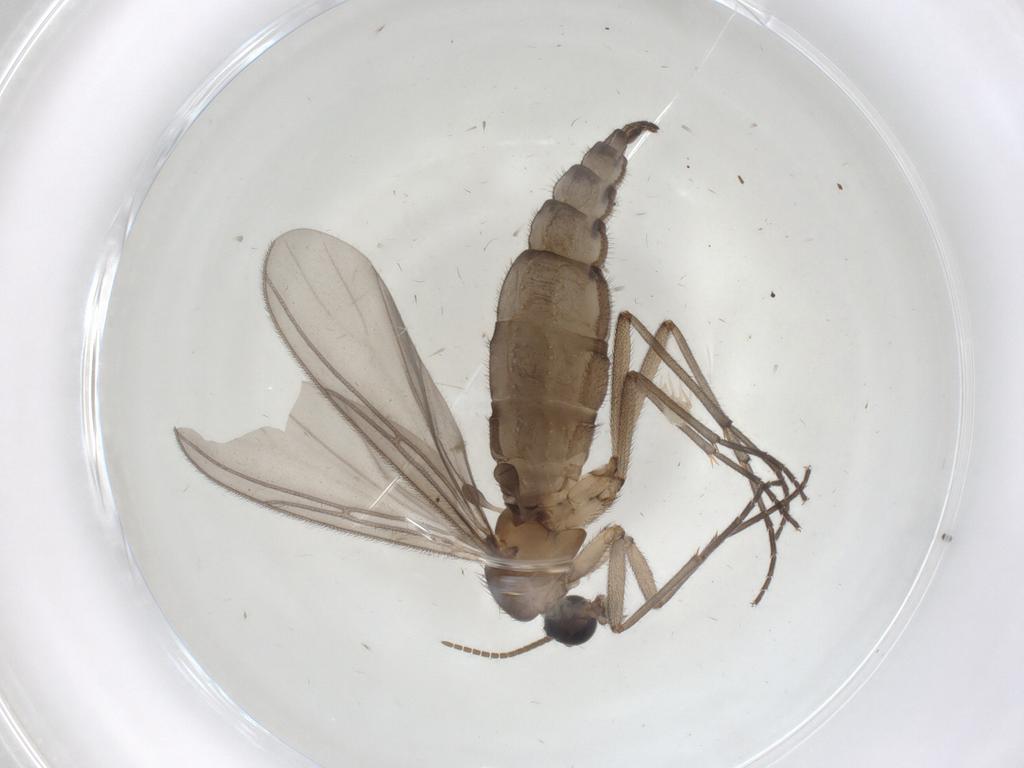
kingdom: Animalia
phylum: Arthropoda
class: Insecta
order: Diptera
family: Cecidomyiidae
